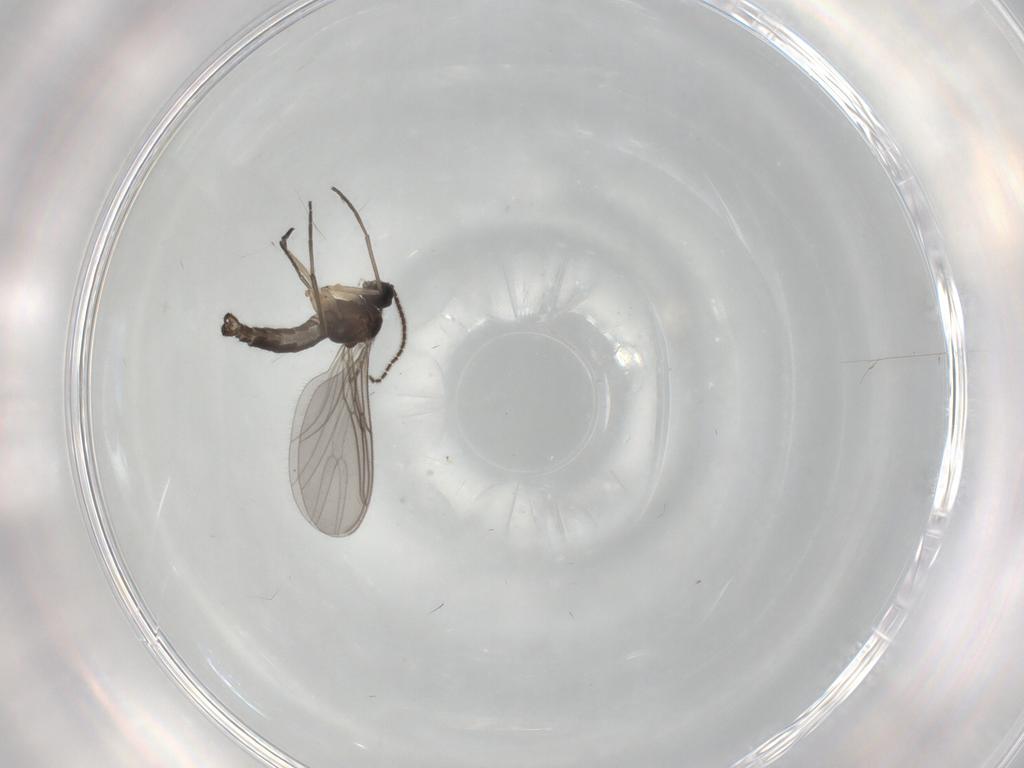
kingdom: Animalia
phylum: Arthropoda
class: Insecta
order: Diptera
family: Sciaridae
